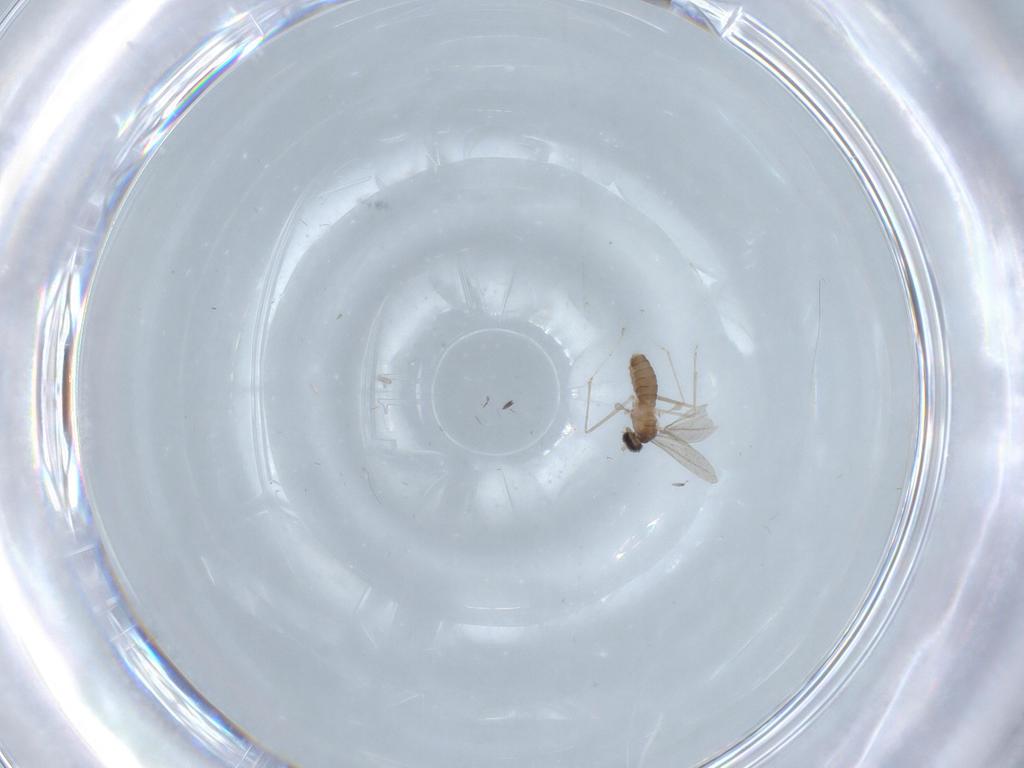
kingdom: Animalia
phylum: Arthropoda
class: Insecta
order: Diptera
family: Cecidomyiidae
